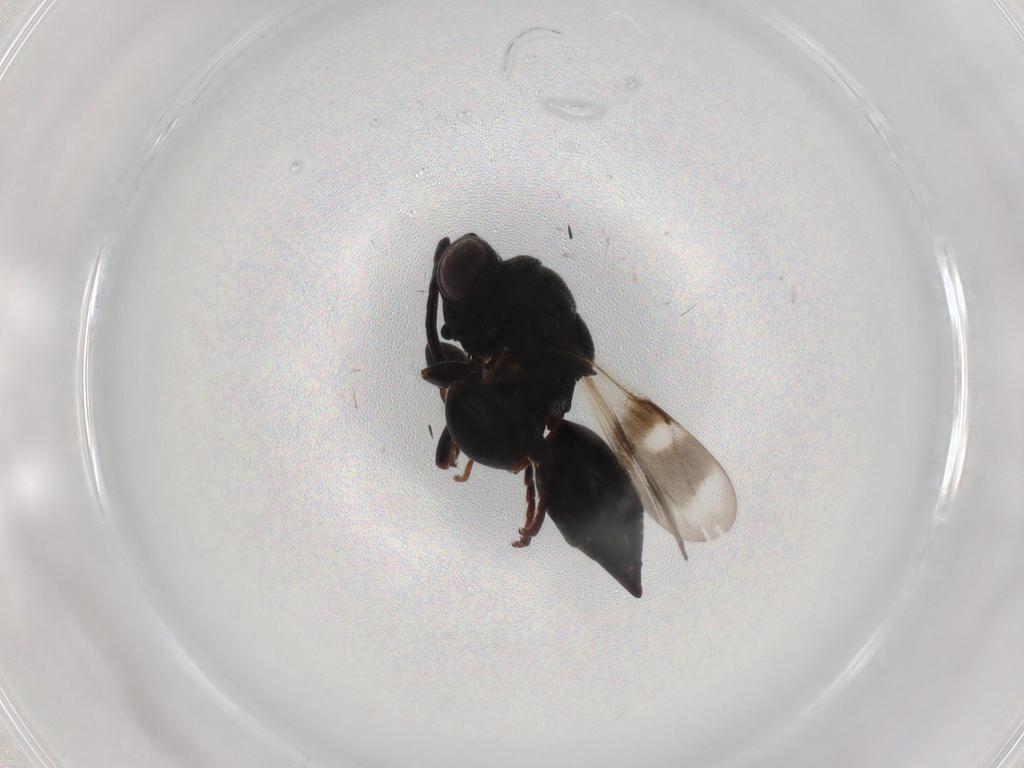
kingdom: Animalia
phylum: Arthropoda
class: Insecta
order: Hymenoptera
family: Chalcididae
